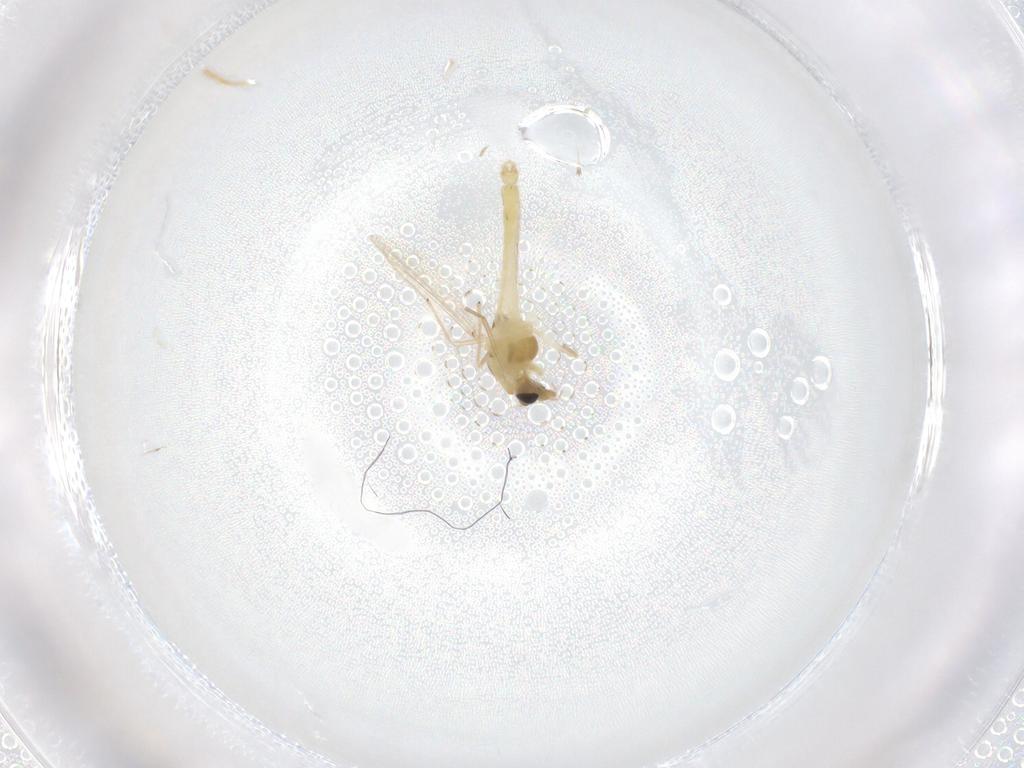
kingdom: Animalia
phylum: Arthropoda
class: Insecta
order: Diptera
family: Chironomidae
